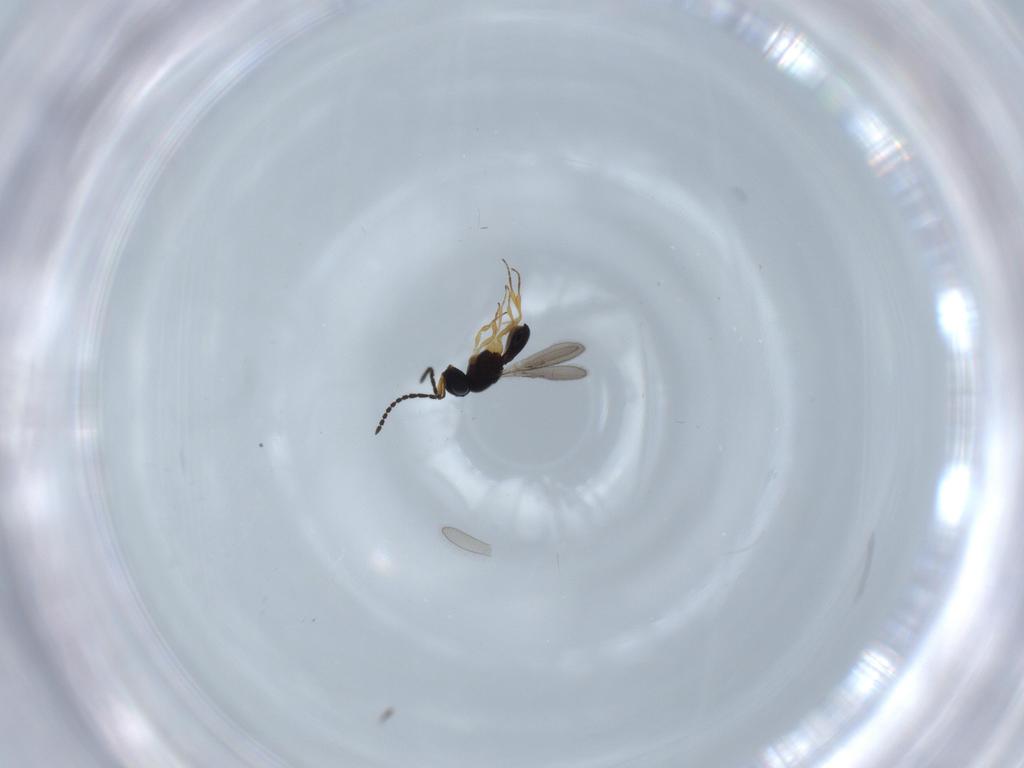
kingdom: Animalia
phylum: Arthropoda
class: Insecta
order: Hymenoptera
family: Scelionidae
